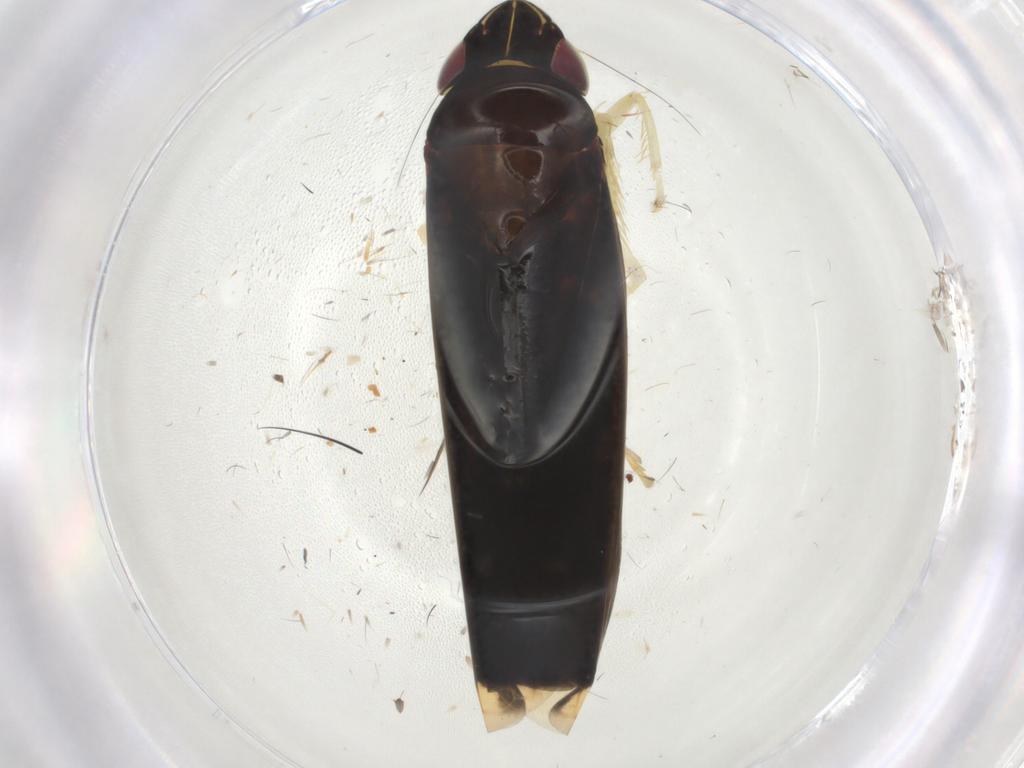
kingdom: Animalia
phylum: Arthropoda
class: Insecta
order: Hemiptera
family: Cicadellidae
